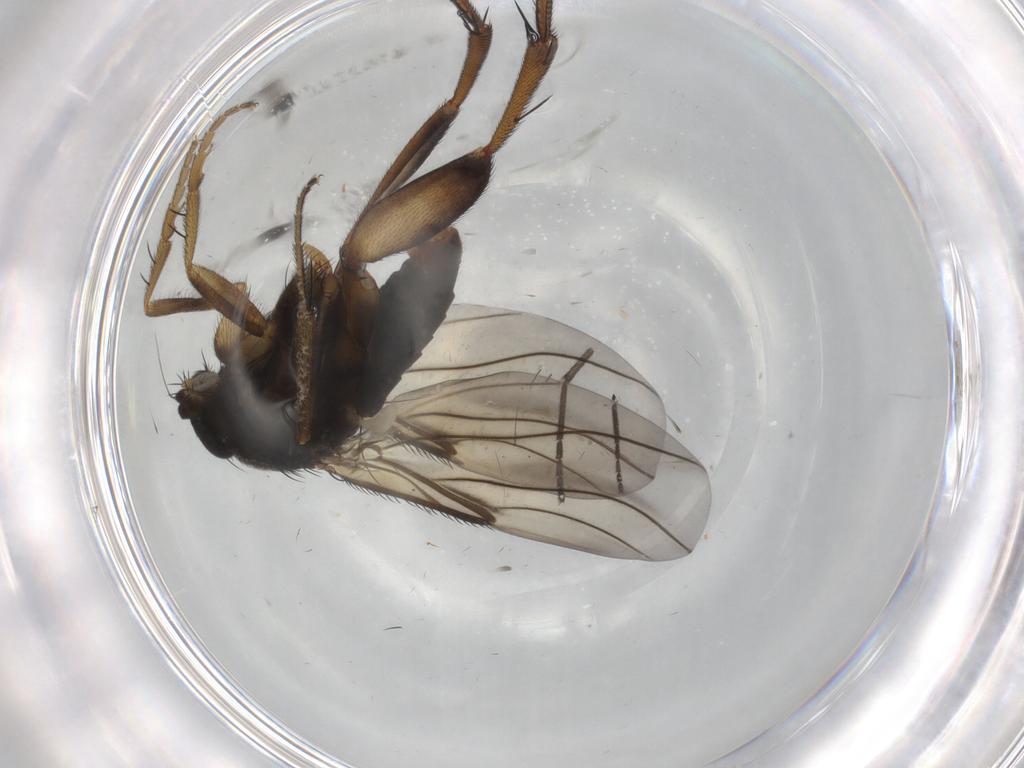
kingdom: Animalia
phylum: Arthropoda
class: Insecta
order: Diptera
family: Phoridae
